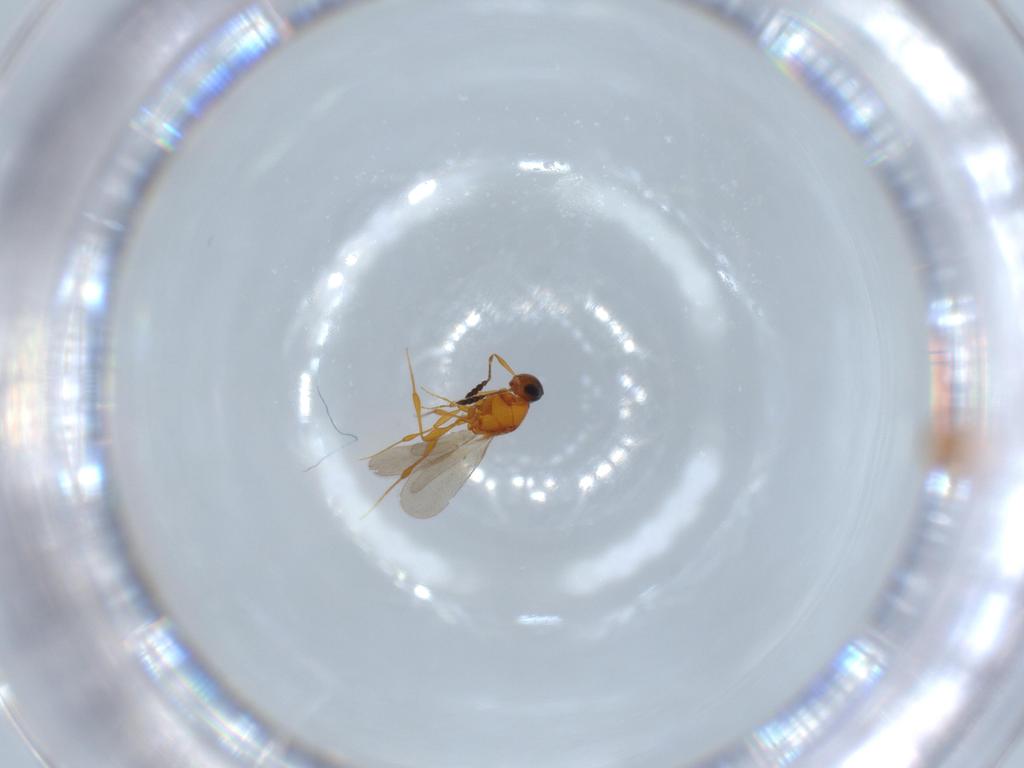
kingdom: Animalia
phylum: Arthropoda
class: Insecta
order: Hymenoptera
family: Platygastridae
